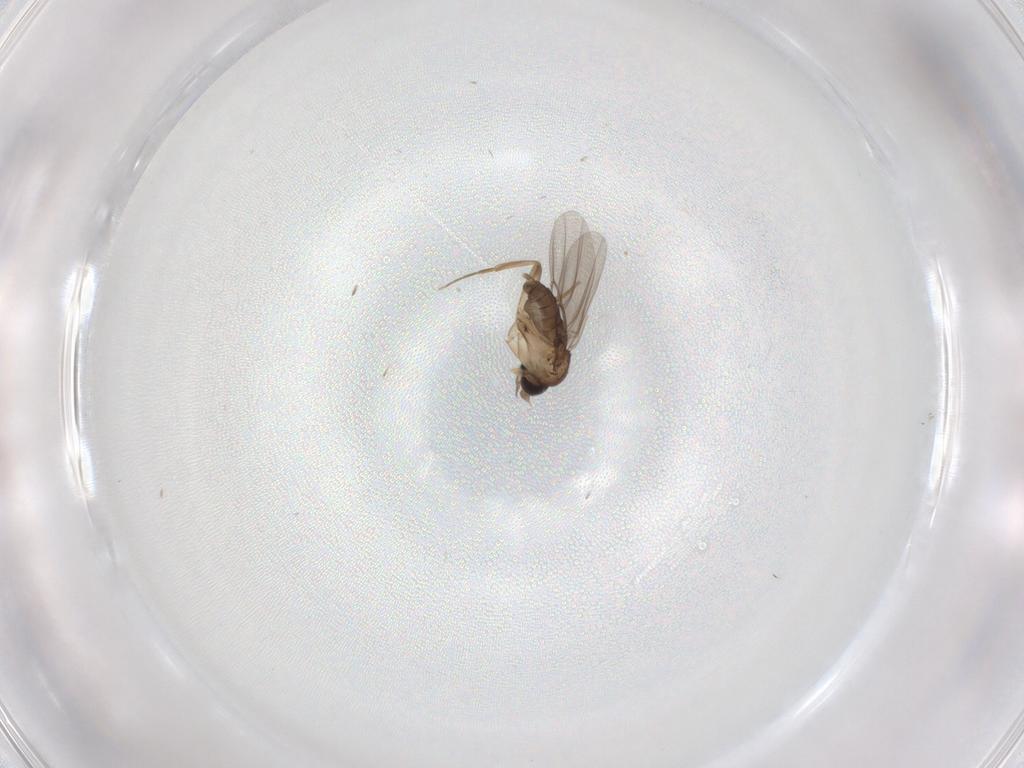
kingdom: Animalia
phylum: Arthropoda
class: Insecta
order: Diptera
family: Phoridae
